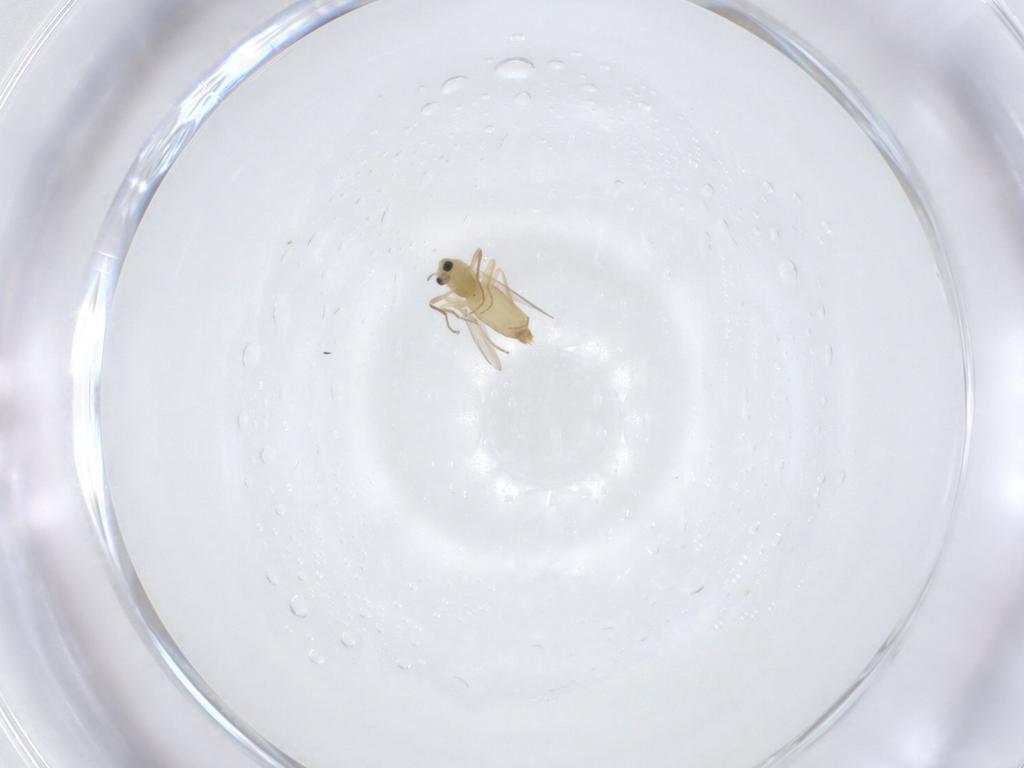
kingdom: Animalia
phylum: Arthropoda
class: Insecta
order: Diptera
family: Chironomidae
